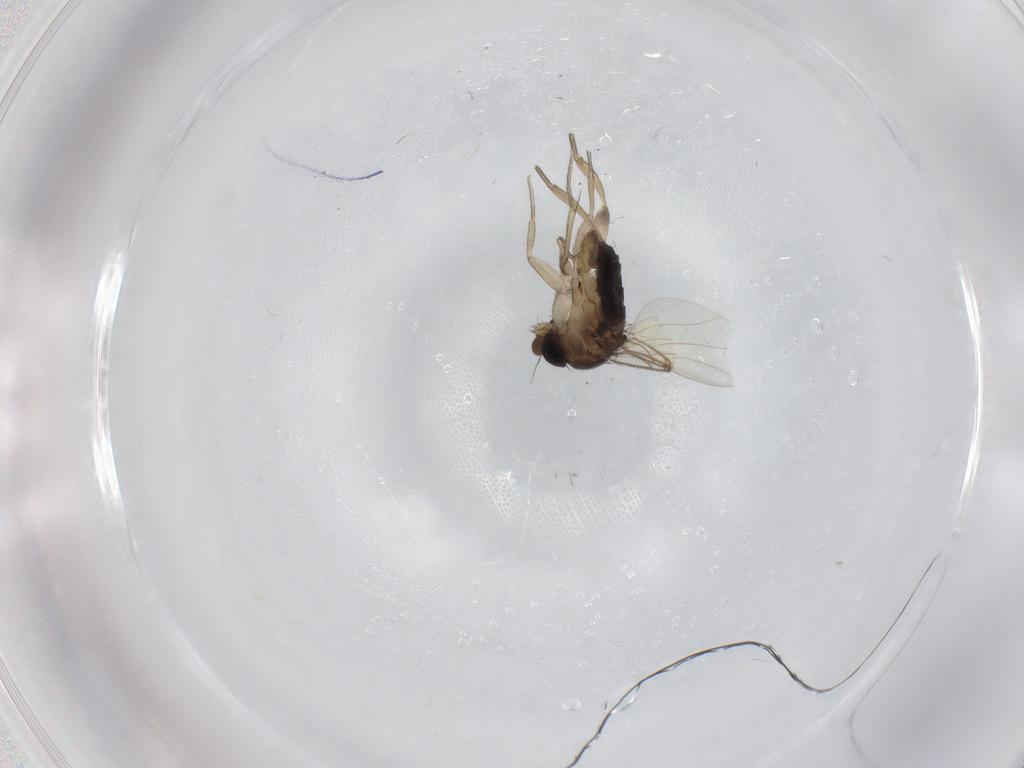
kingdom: Animalia
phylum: Arthropoda
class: Insecta
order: Diptera
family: Phoridae
